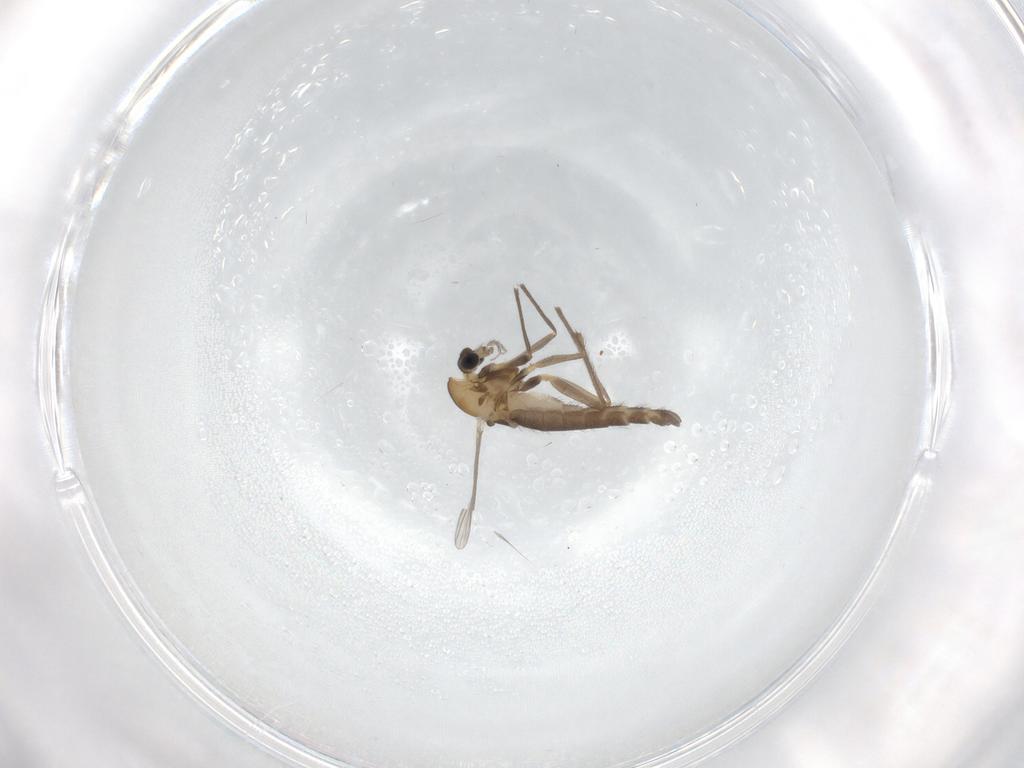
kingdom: Animalia
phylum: Arthropoda
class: Insecta
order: Diptera
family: Chironomidae
